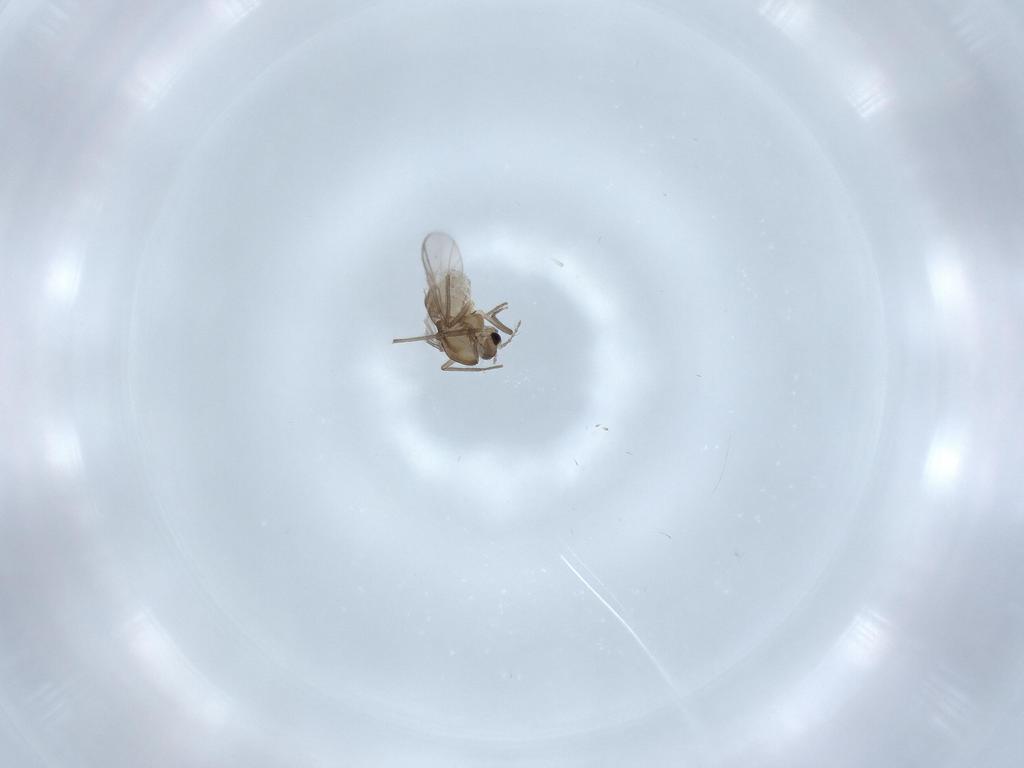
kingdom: Animalia
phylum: Arthropoda
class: Insecta
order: Diptera
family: Chironomidae
